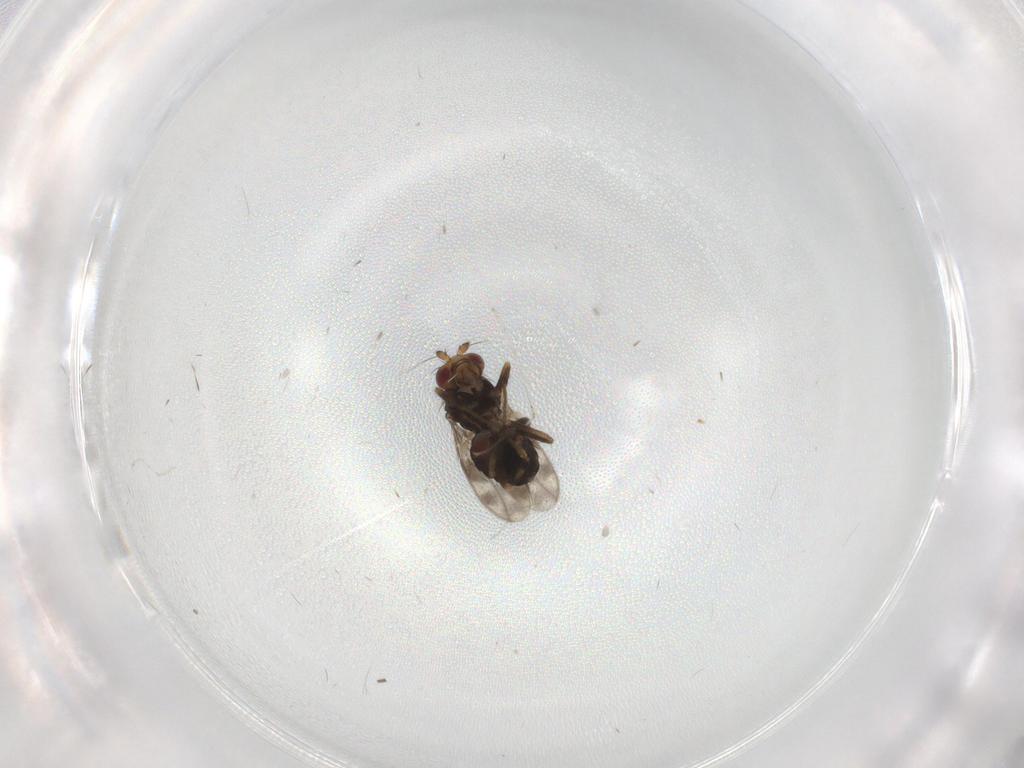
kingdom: Animalia
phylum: Arthropoda
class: Insecta
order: Diptera
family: Sphaeroceridae
